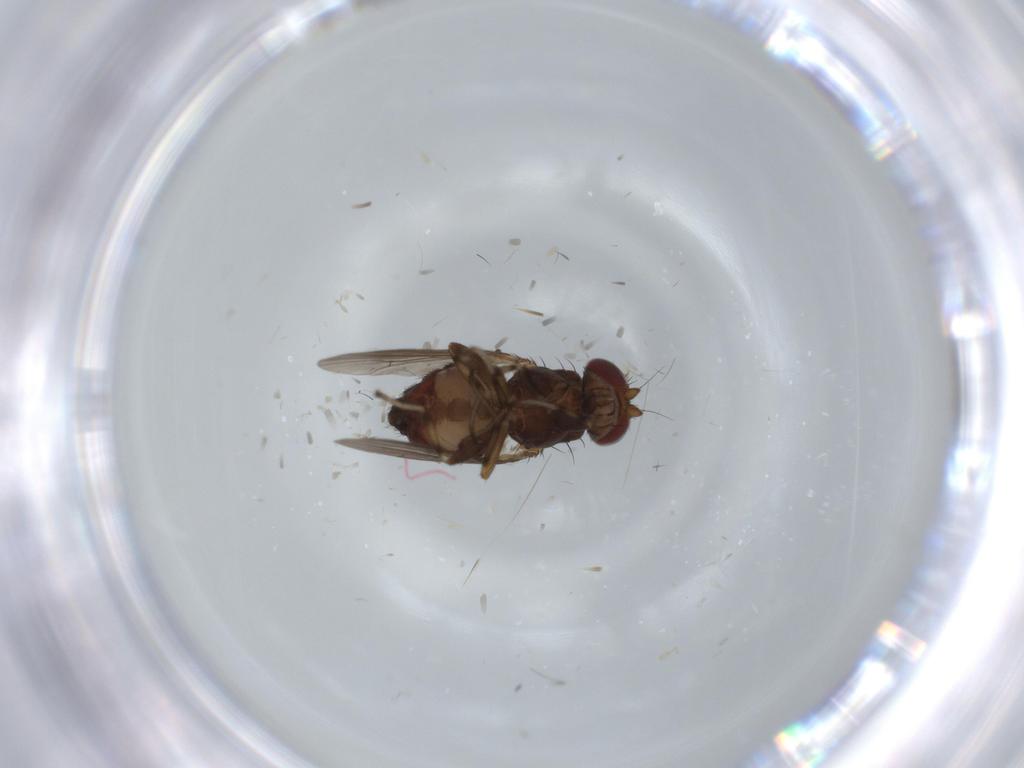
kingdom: Animalia
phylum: Arthropoda
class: Insecta
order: Diptera
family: Heleomyzidae
